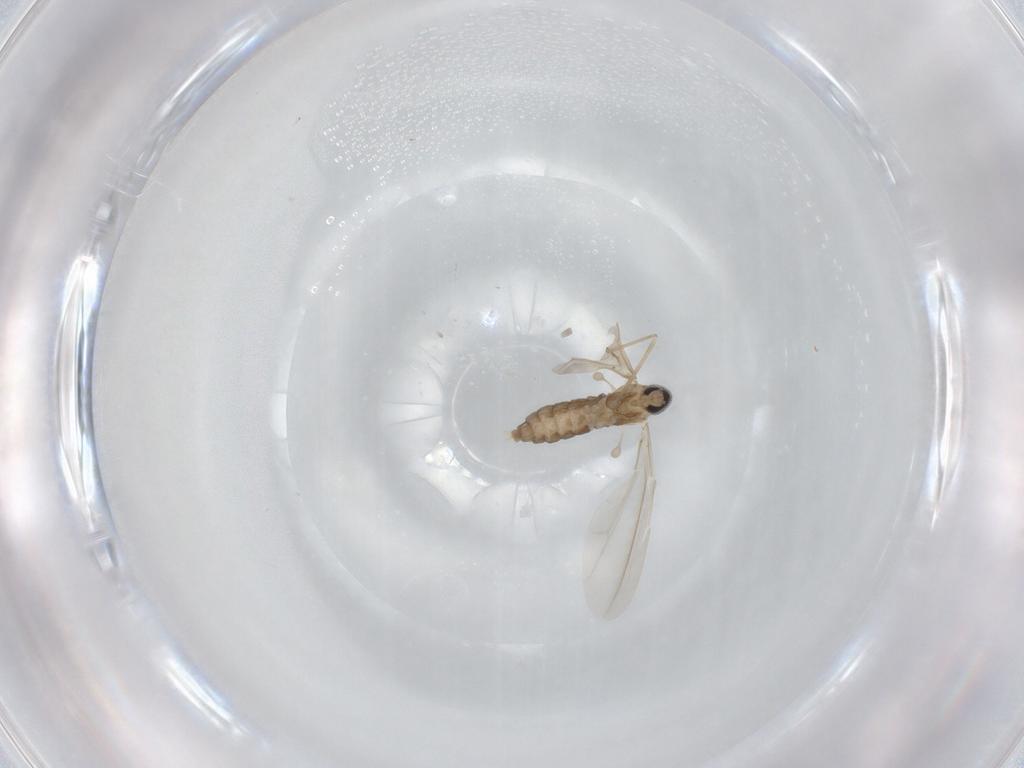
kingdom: Animalia
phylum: Arthropoda
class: Insecta
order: Diptera
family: Cecidomyiidae
